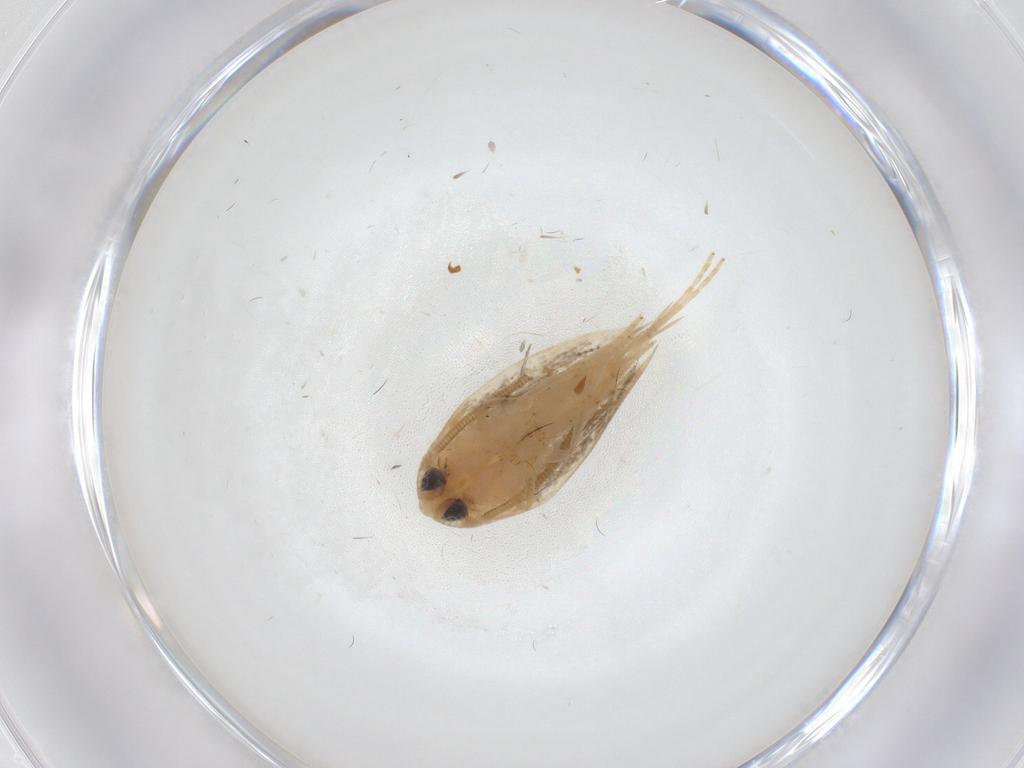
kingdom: Animalia
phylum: Arthropoda
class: Insecta
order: Lepidoptera
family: Opostegidae
